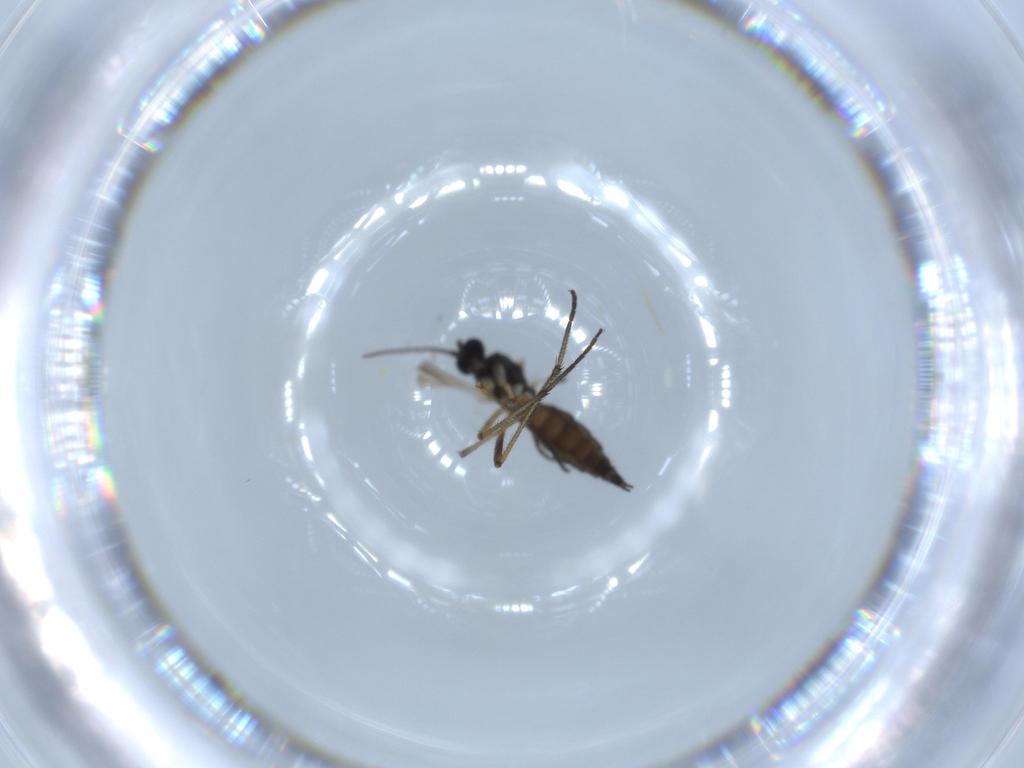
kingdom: Animalia
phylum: Arthropoda
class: Insecta
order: Diptera
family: Sciaridae
